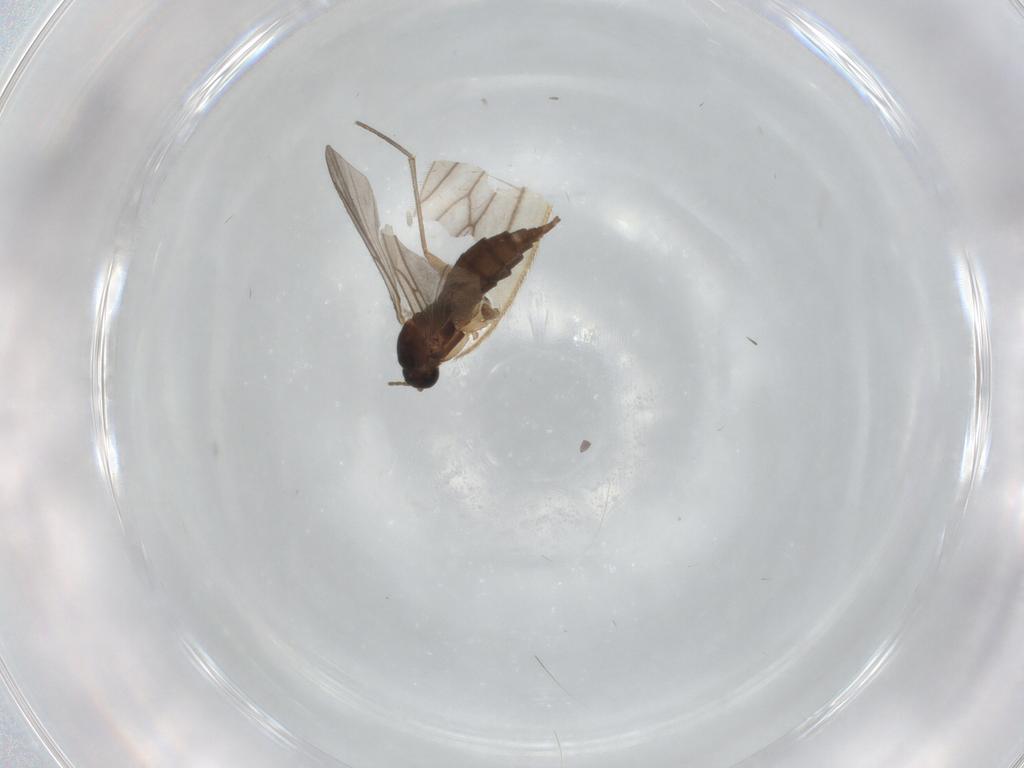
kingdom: Animalia
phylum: Arthropoda
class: Insecta
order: Diptera
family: Sciaridae
